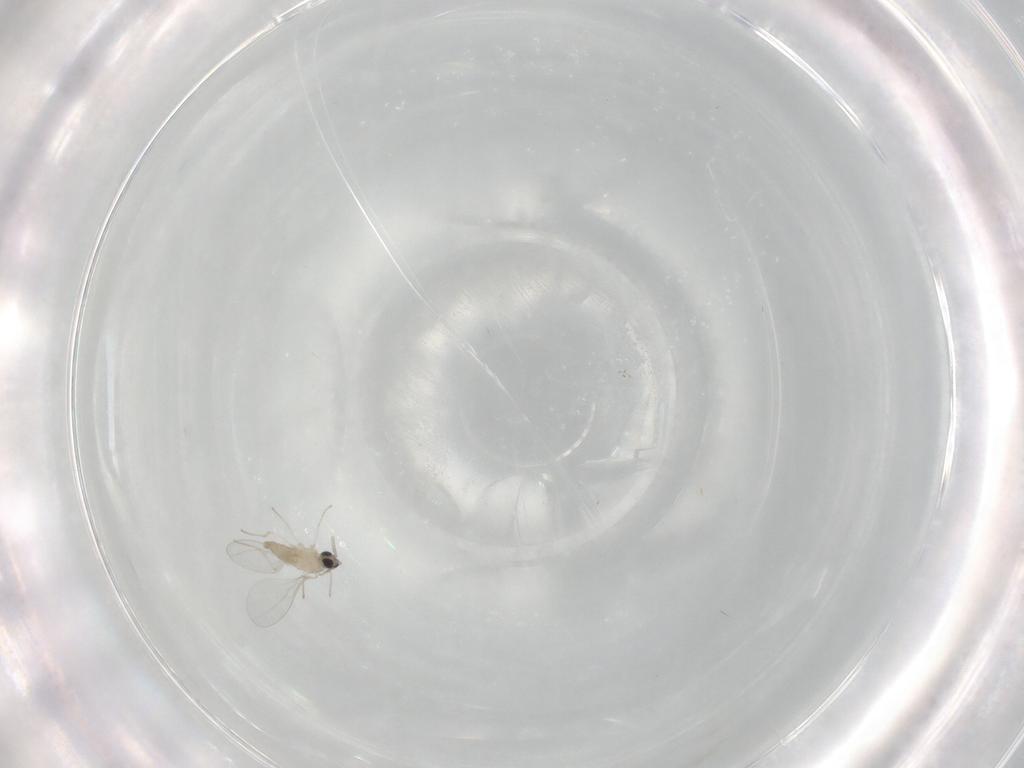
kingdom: Animalia
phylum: Arthropoda
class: Insecta
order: Diptera
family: Cecidomyiidae
